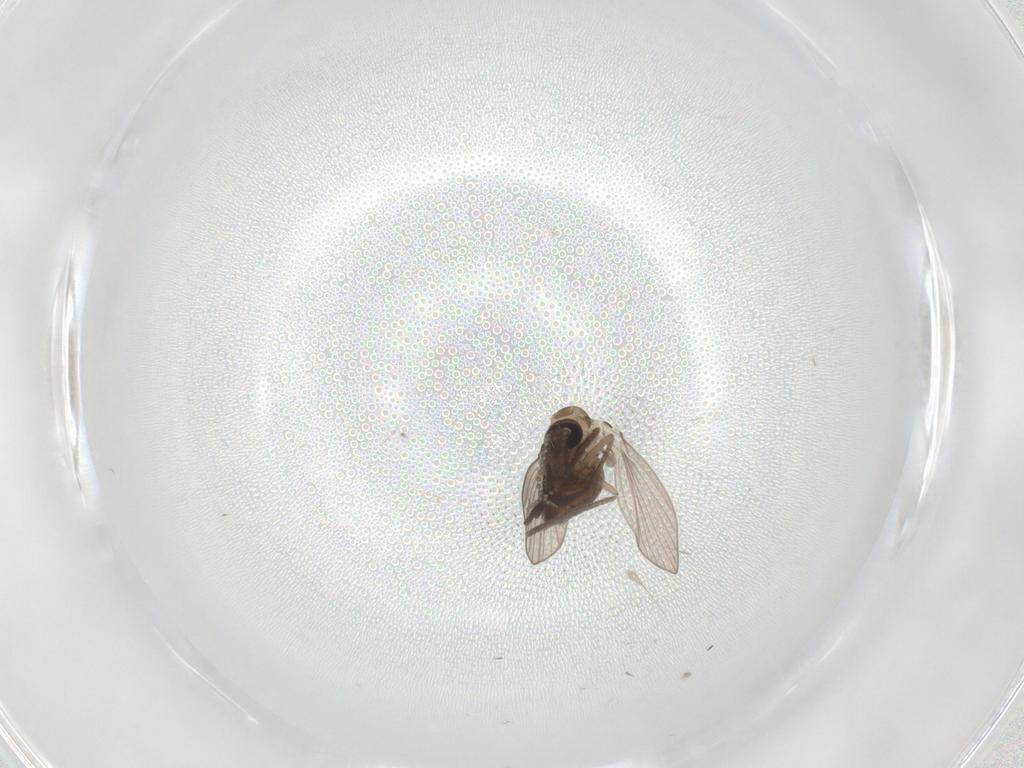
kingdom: Animalia
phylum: Arthropoda
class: Insecta
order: Diptera
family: Psychodidae
